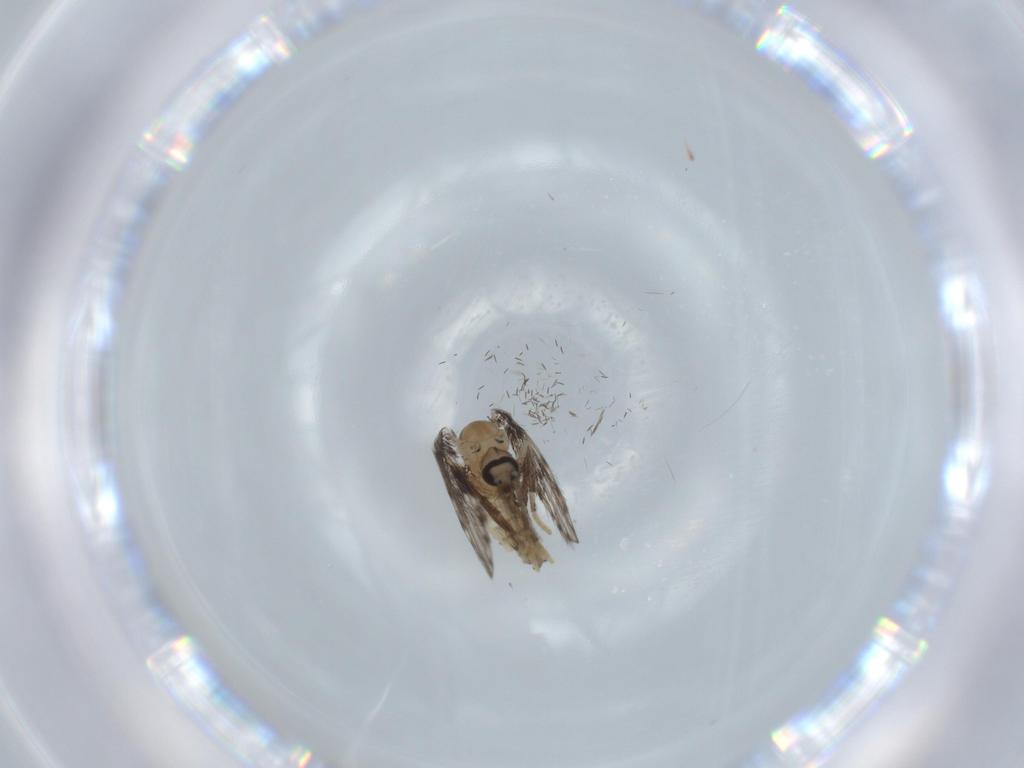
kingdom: Animalia
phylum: Arthropoda
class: Insecta
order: Diptera
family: Psychodidae
